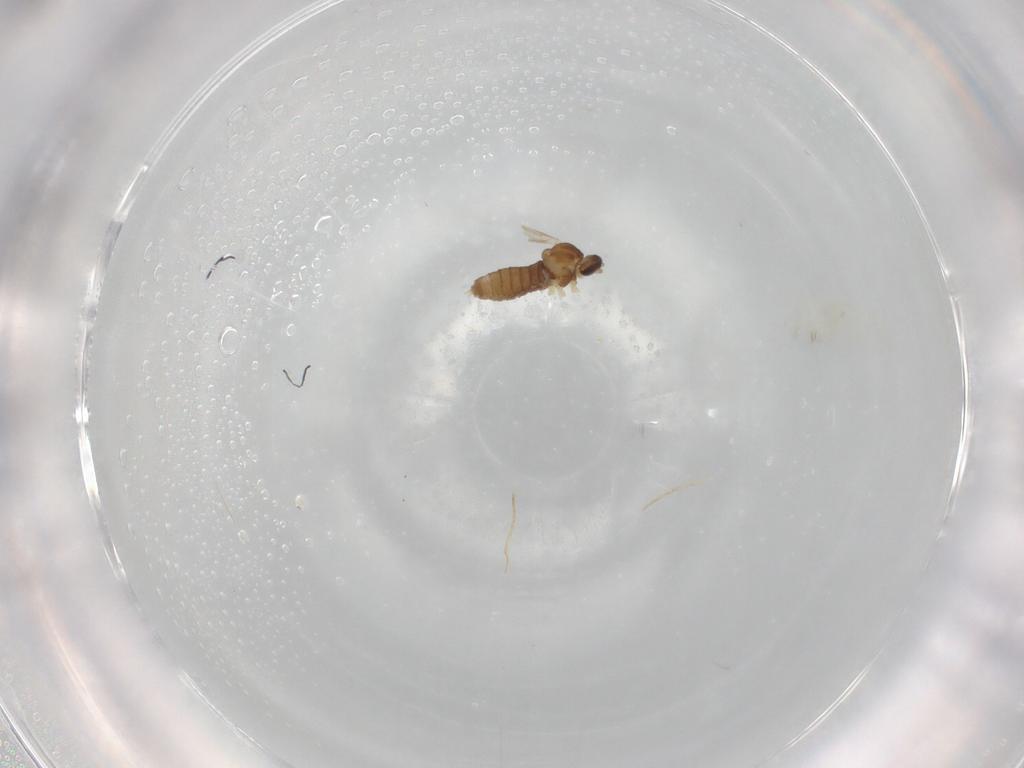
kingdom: Animalia
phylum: Arthropoda
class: Insecta
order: Diptera
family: Cecidomyiidae
